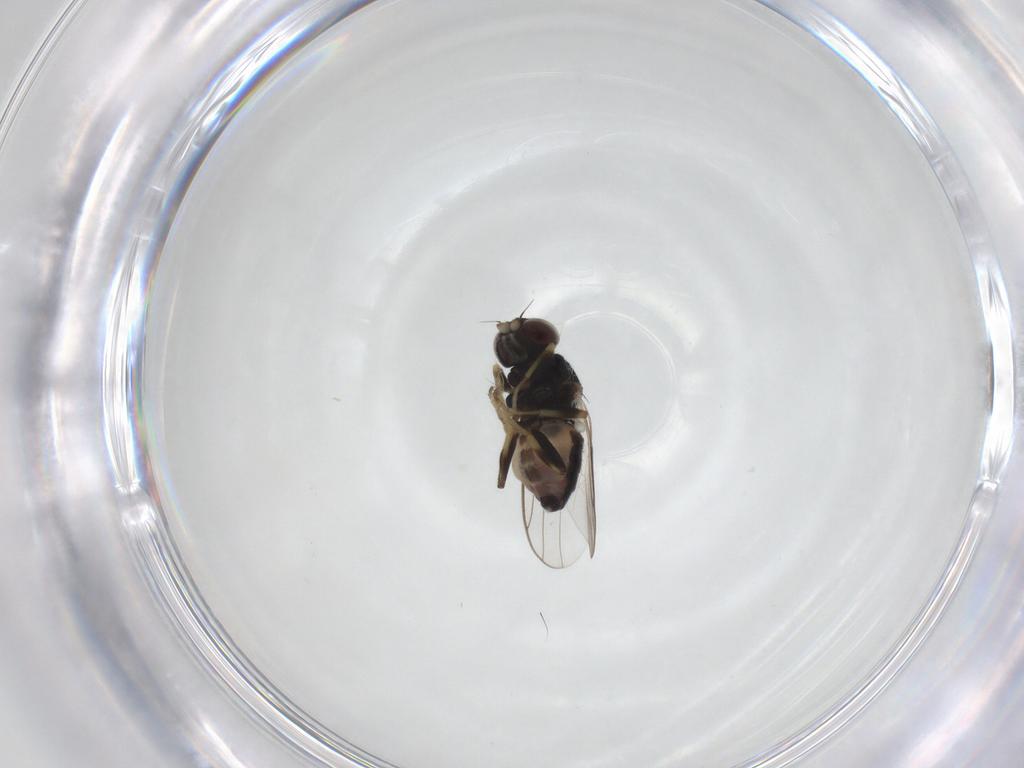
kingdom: Animalia
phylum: Arthropoda
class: Insecta
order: Diptera
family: Chloropidae
